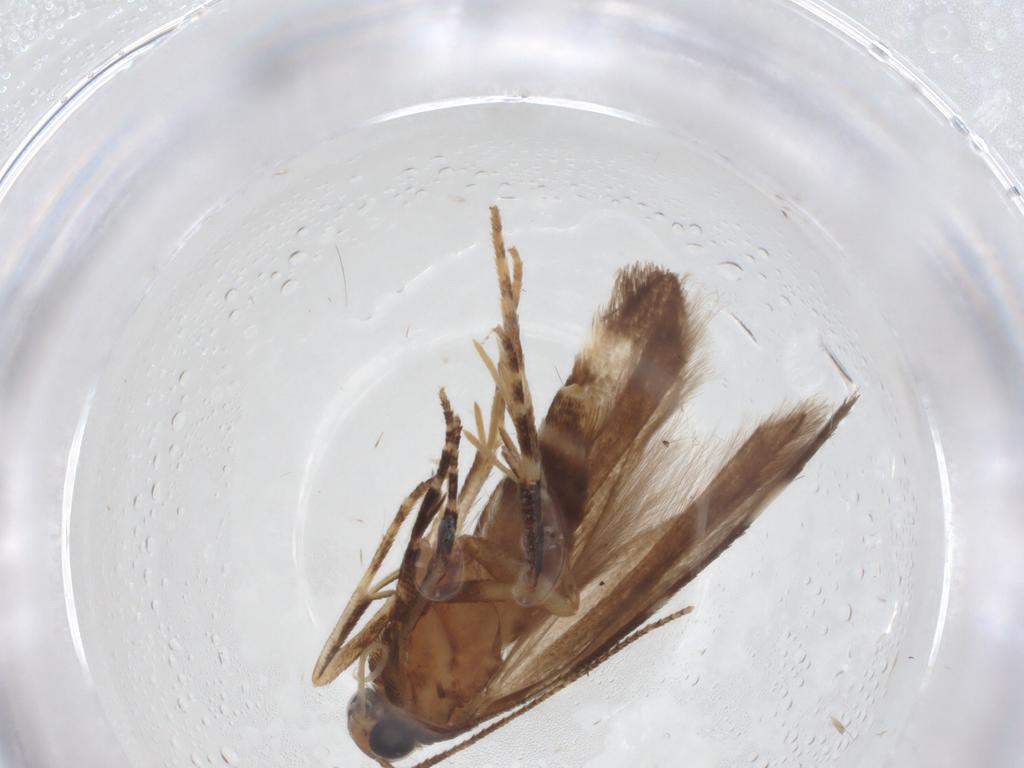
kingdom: Animalia
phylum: Arthropoda
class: Insecta
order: Lepidoptera
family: Gelechiidae
